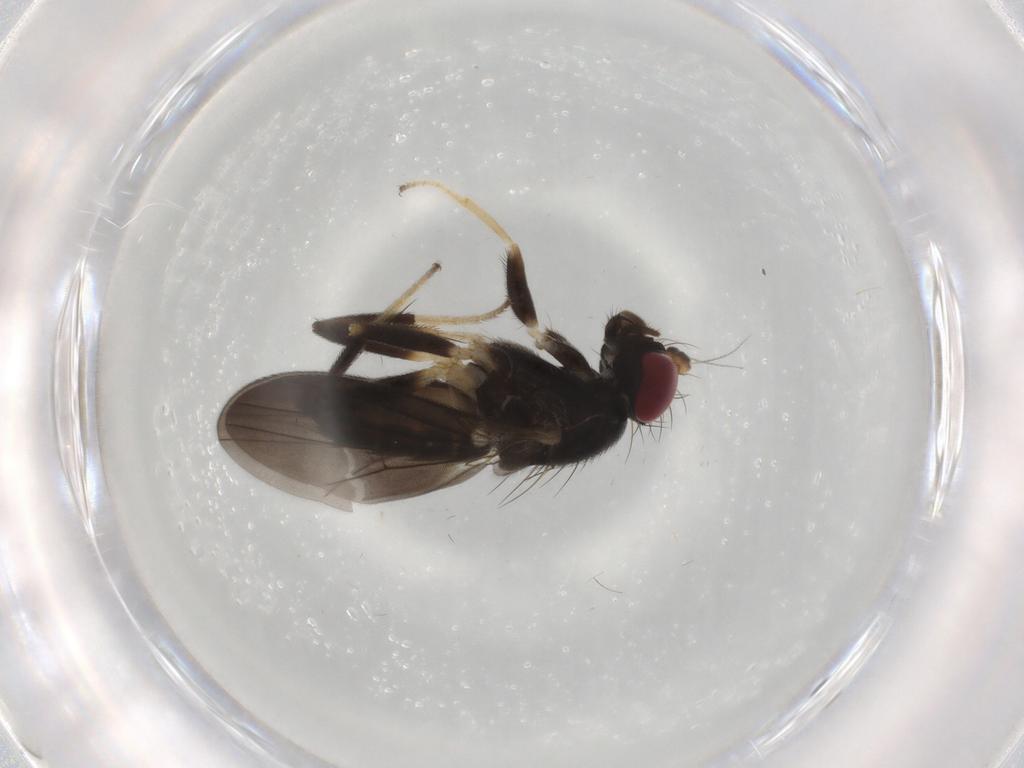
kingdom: Animalia
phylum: Arthropoda
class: Insecta
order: Diptera
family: Clusiidae
